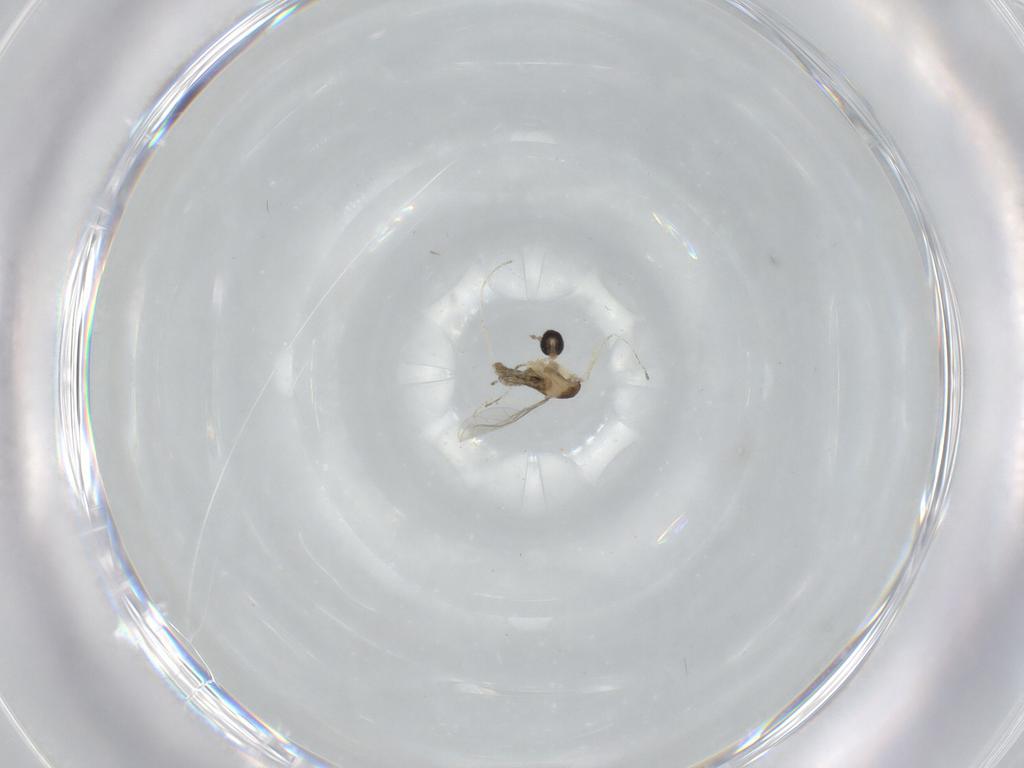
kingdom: Animalia
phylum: Arthropoda
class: Insecta
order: Diptera
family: Cecidomyiidae
